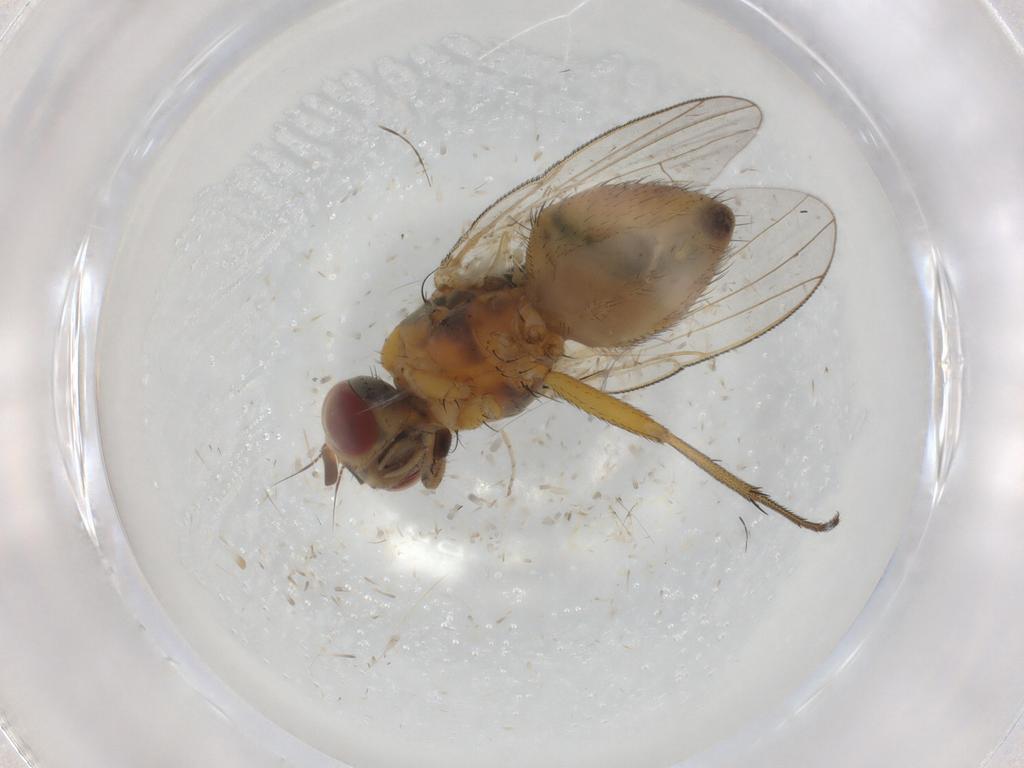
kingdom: Animalia
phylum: Arthropoda
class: Insecta
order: Diptera
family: Muscidae
